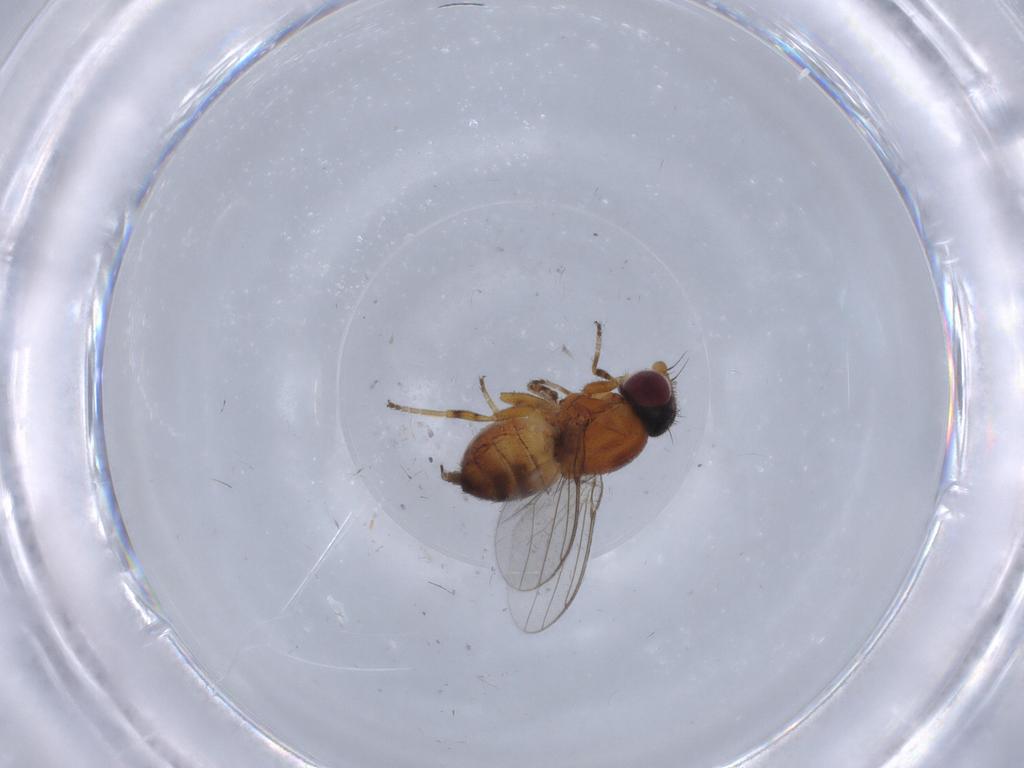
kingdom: Animalia
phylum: Arthropoda
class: Insecta
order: Diptera
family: Chloropidae
